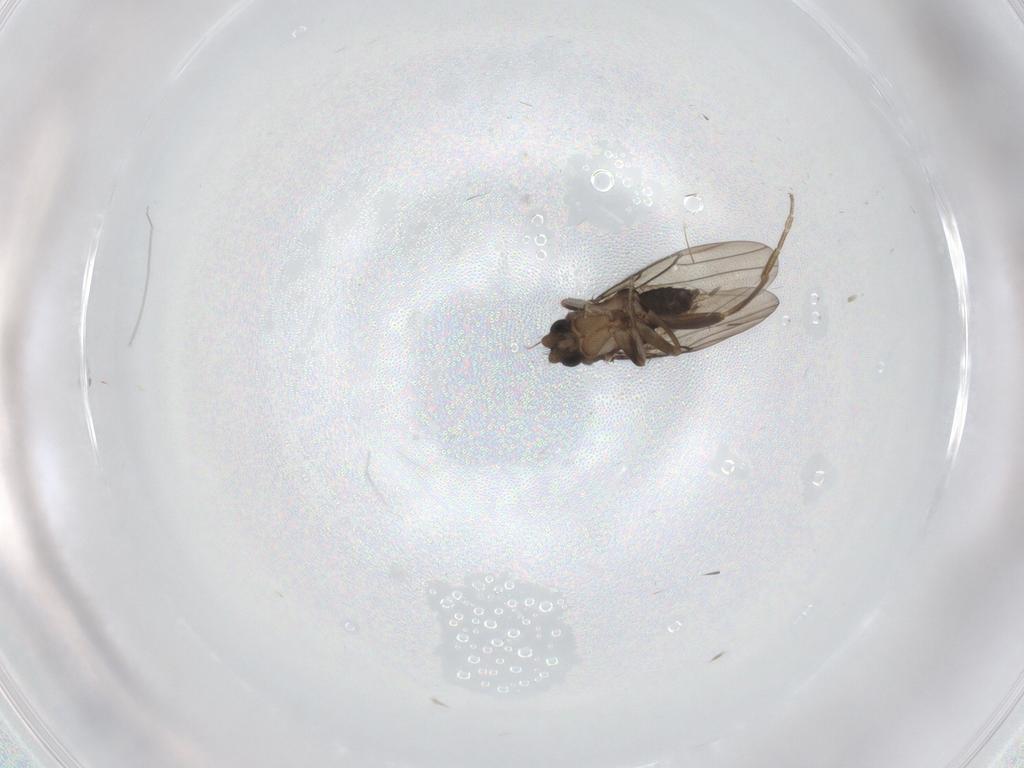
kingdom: Animalia
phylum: Arthropoda
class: Insecta
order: Diptera
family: Phoridae
